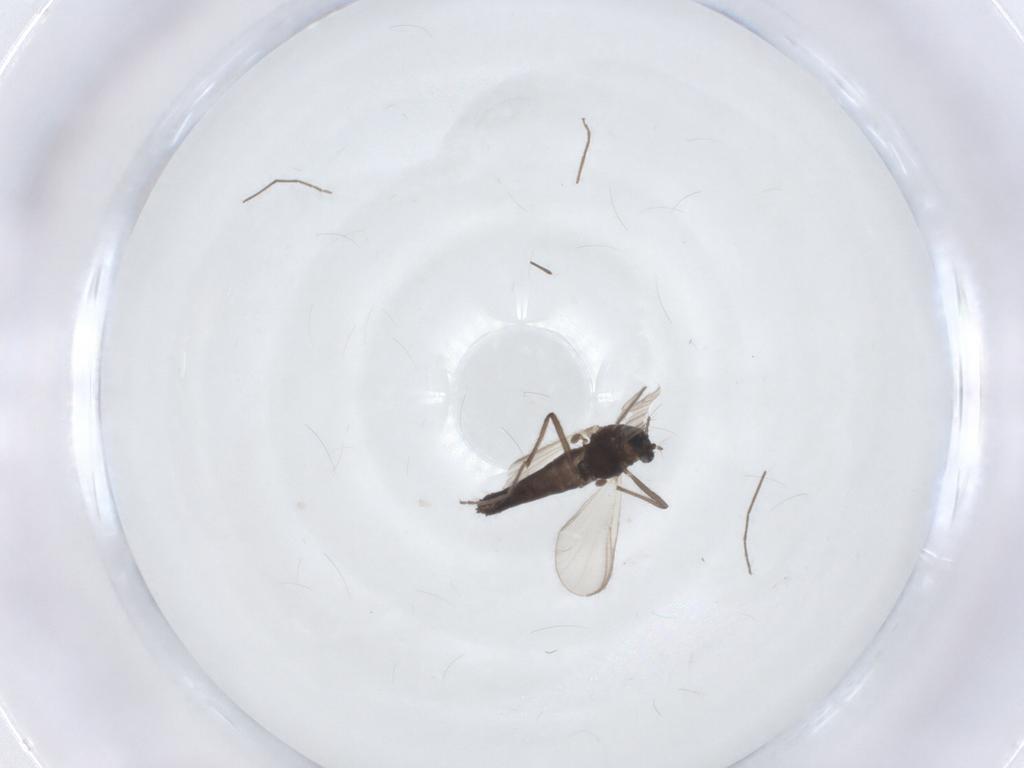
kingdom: Animalia
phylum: Arthropoda
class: Insecta
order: Diptera
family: Chironomidae
